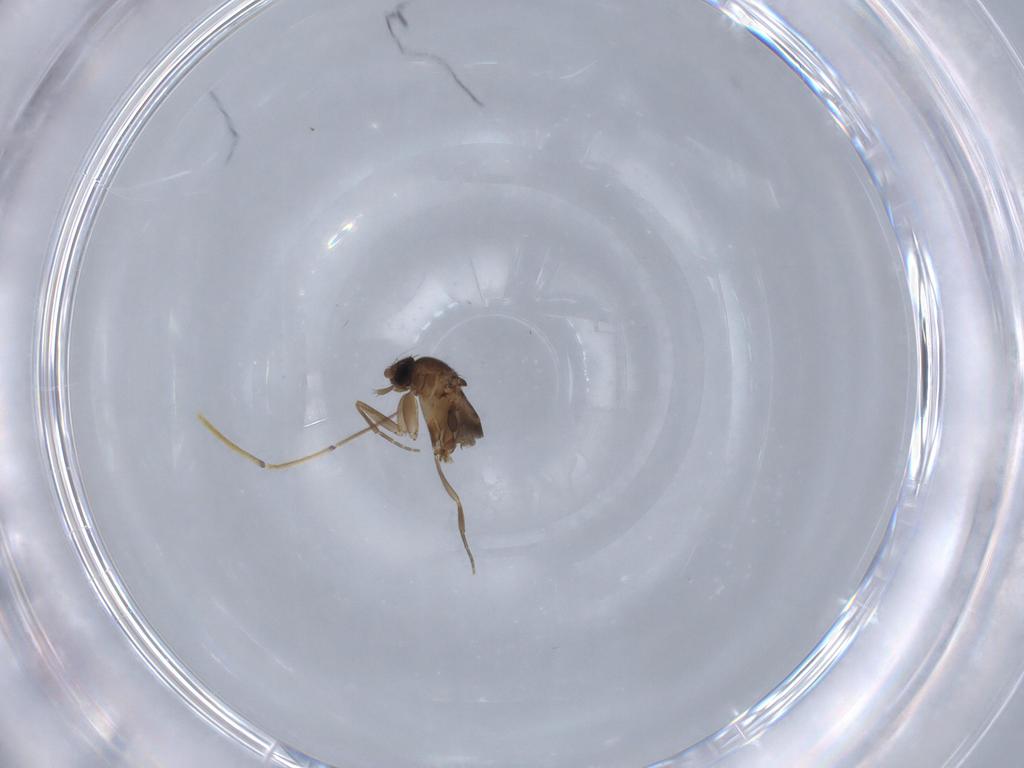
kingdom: Animalia
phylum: Arthropoda
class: Insecta
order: Diptera
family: Phoridae
